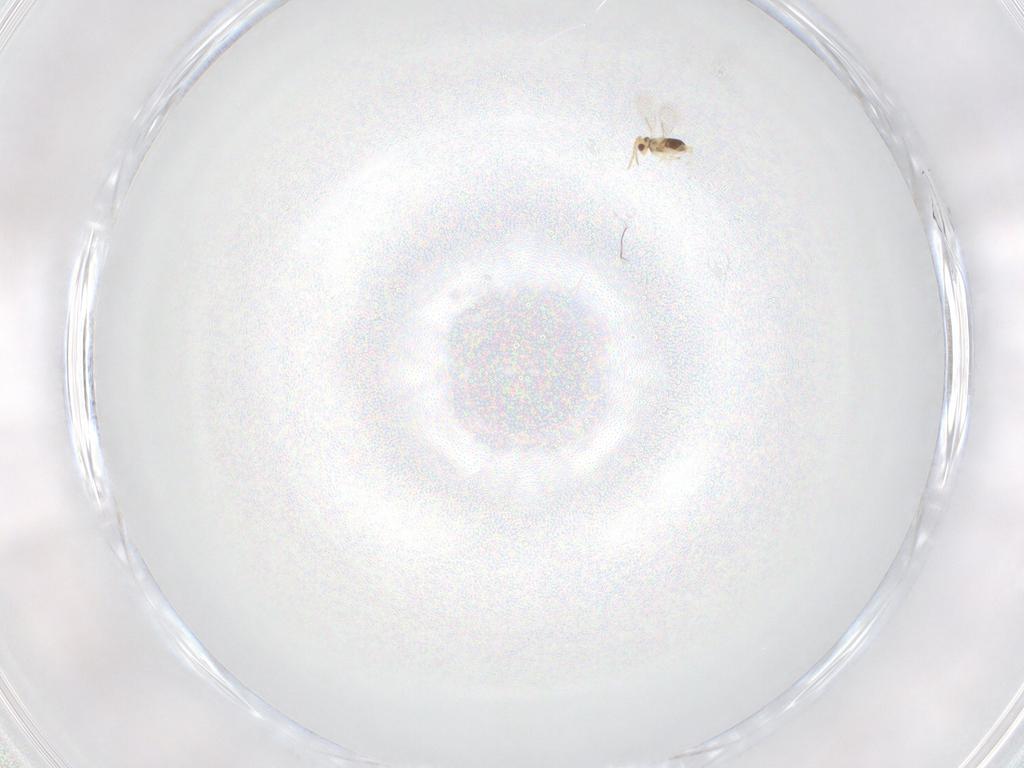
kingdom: Animalia
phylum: Arthropoda
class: Insecta
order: Hymenoptera
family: Formicidae
